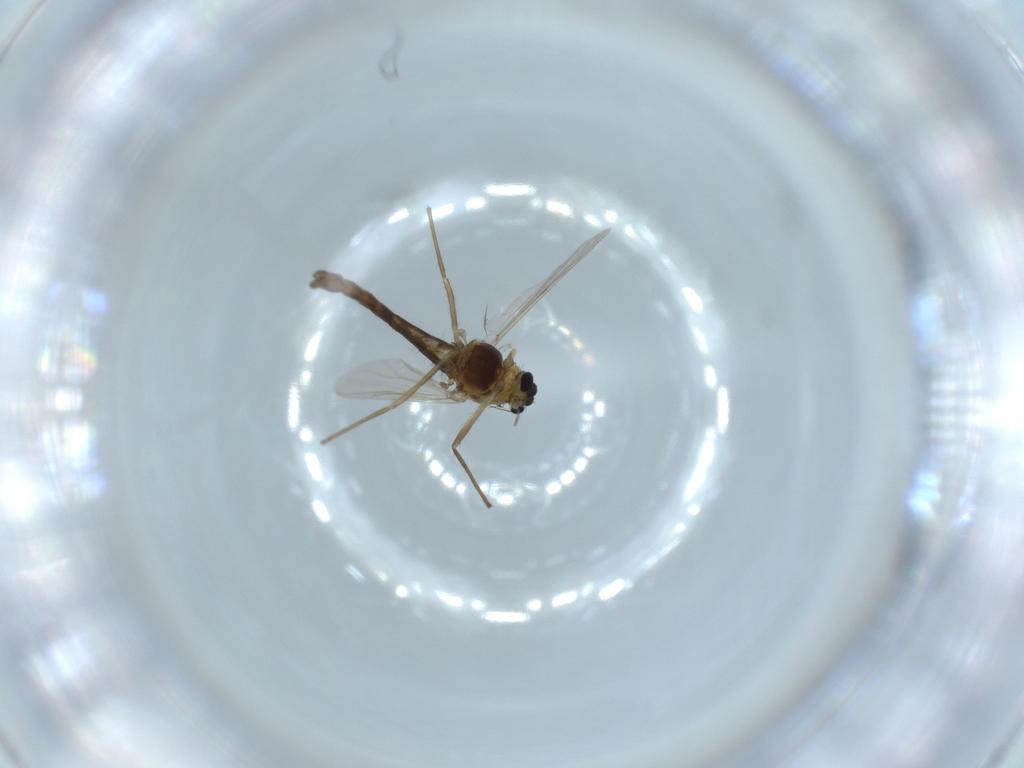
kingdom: Animalia
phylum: Arthropoda
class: Insecta
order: Diptera
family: Chironomidae
